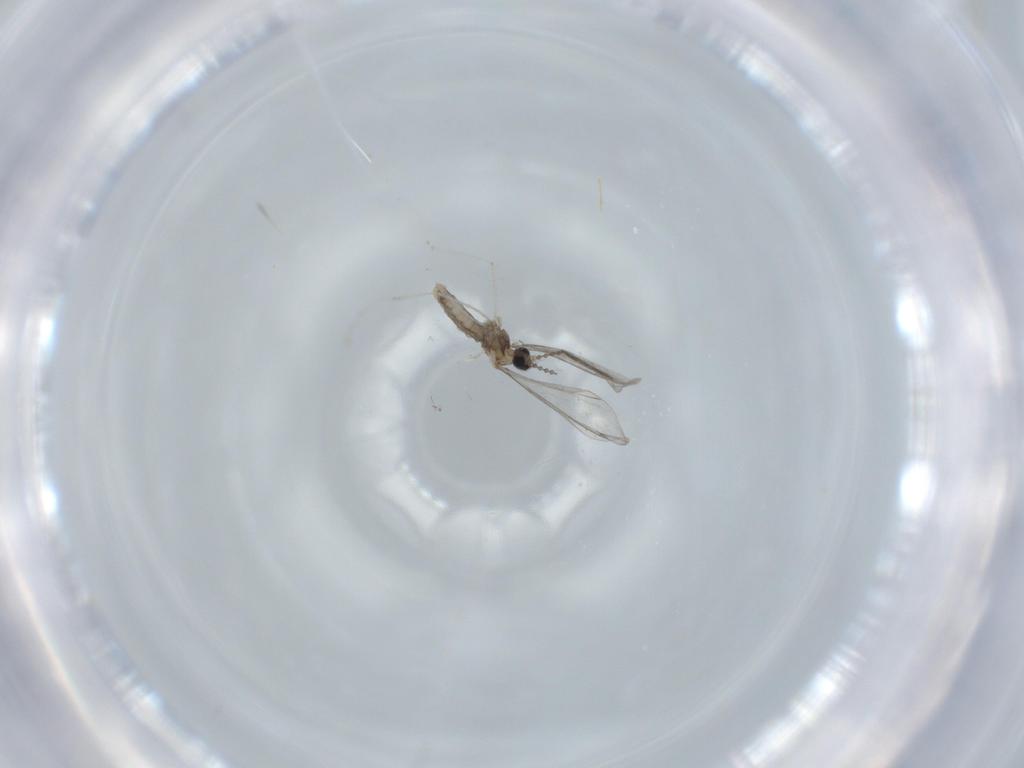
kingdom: Animalia
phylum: Arthropoda
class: Insecta
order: Diptera
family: Cecidomyiidae
